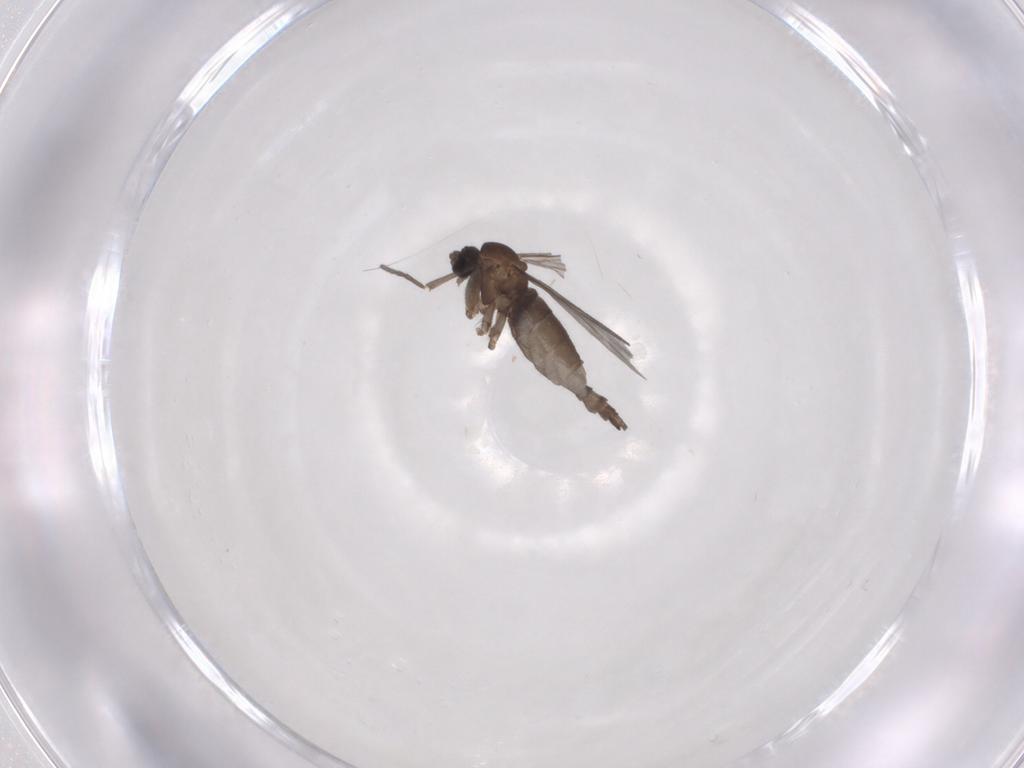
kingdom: Animalia
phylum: Arthropoda
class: Insecta
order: Diptera
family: Sciaridae
